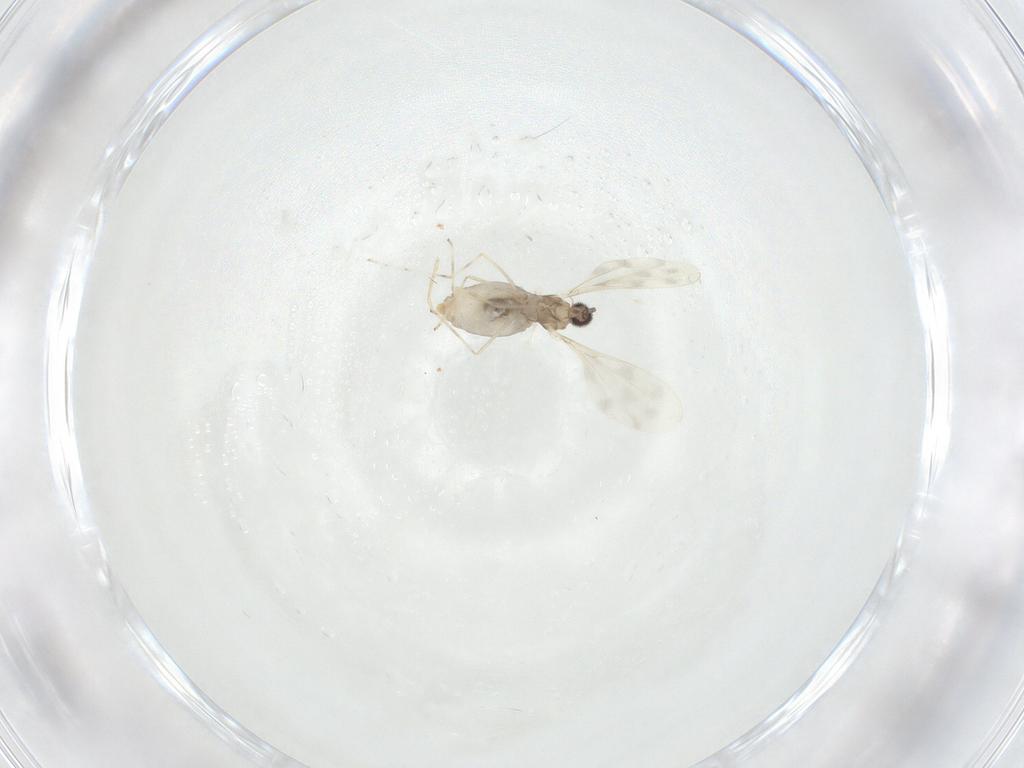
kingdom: Animalia
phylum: Arthropoda
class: Insecta
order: Diptera
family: Cecidomyiidae
